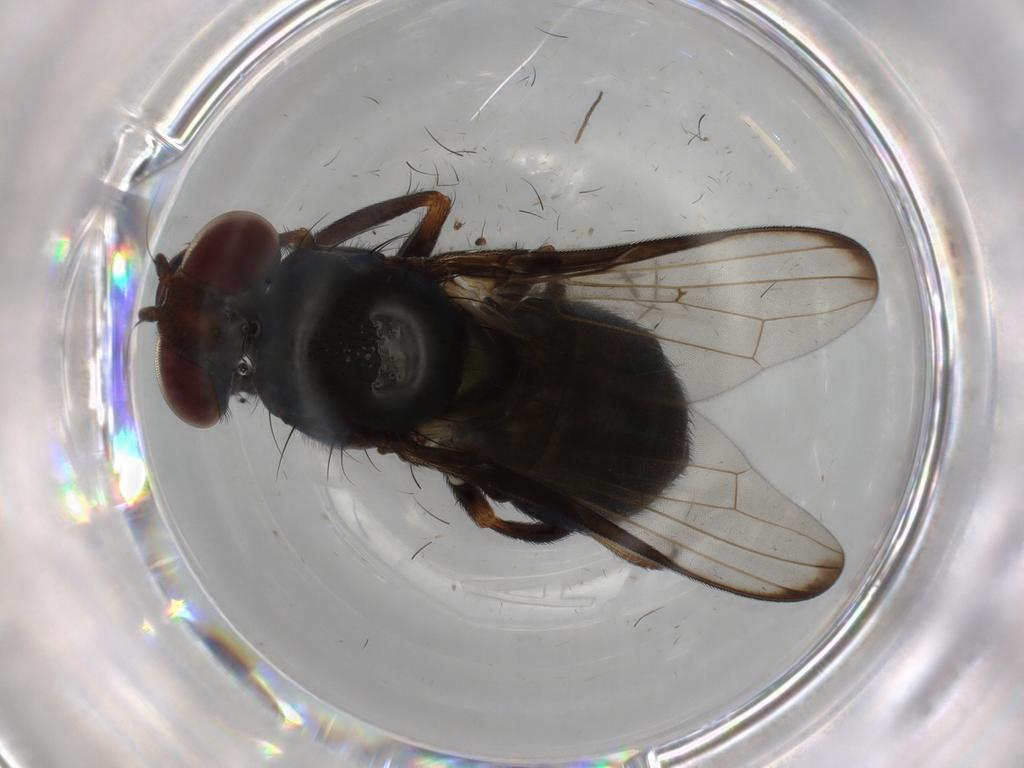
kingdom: Animalia
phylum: Arthropoda
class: Insecta
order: Diptera
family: Ulidiidae
